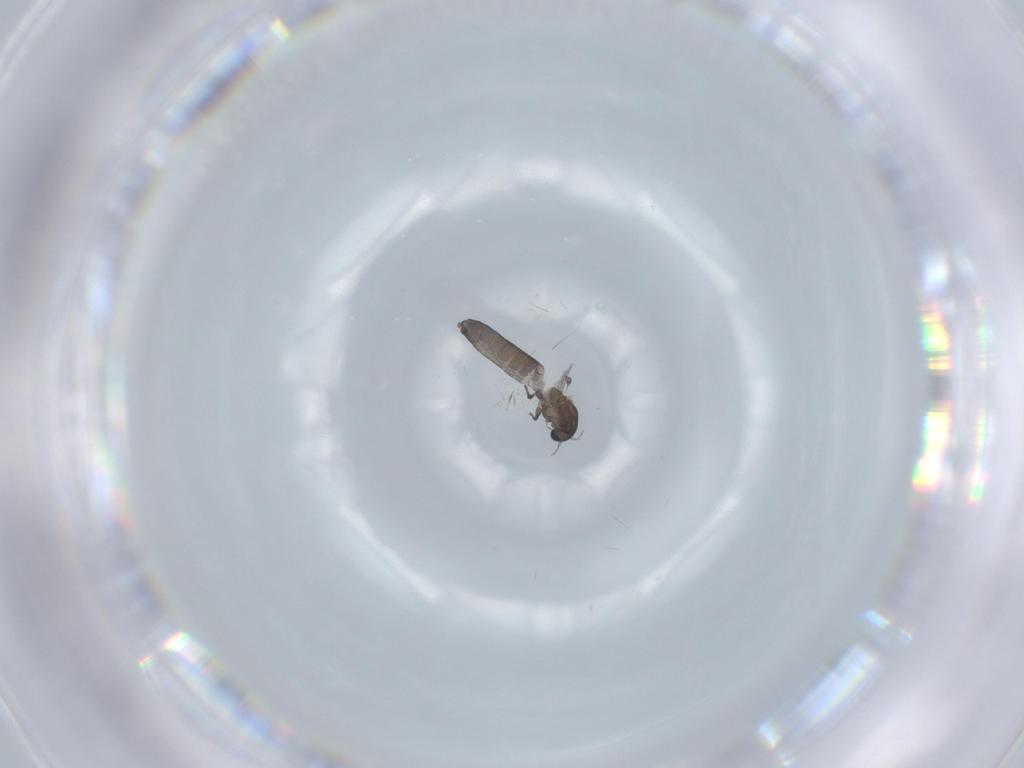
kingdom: Animalia
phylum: Arthropoda
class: Insecta
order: Diptera
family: Chironomidae
